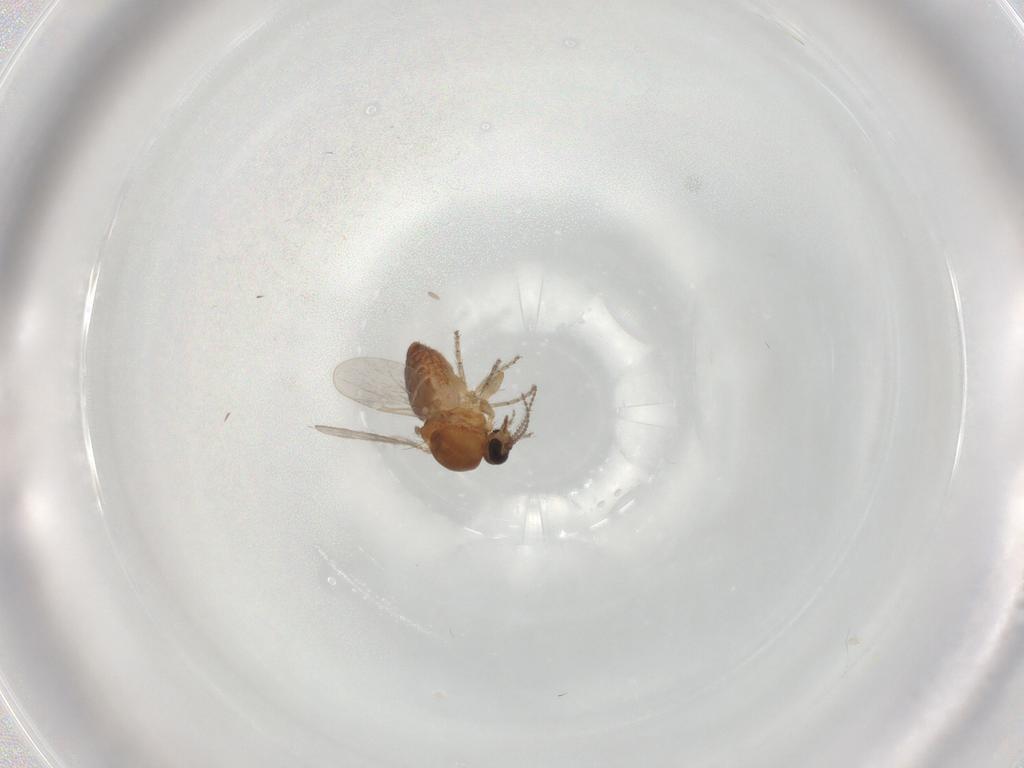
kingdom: Animalia
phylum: Arthropoda
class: Insecta
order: Diptera
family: Ceratopogonidae
